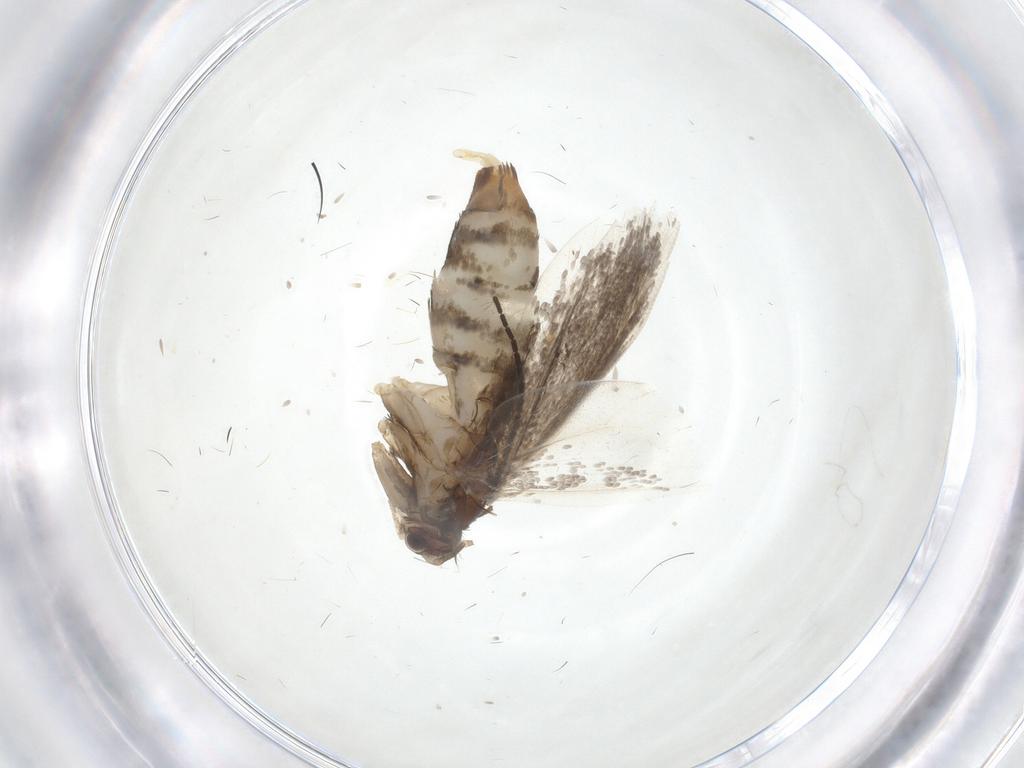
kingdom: Animalia
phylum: Arthropoda
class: Insecta
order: Lepidoptera
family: Tineidae
